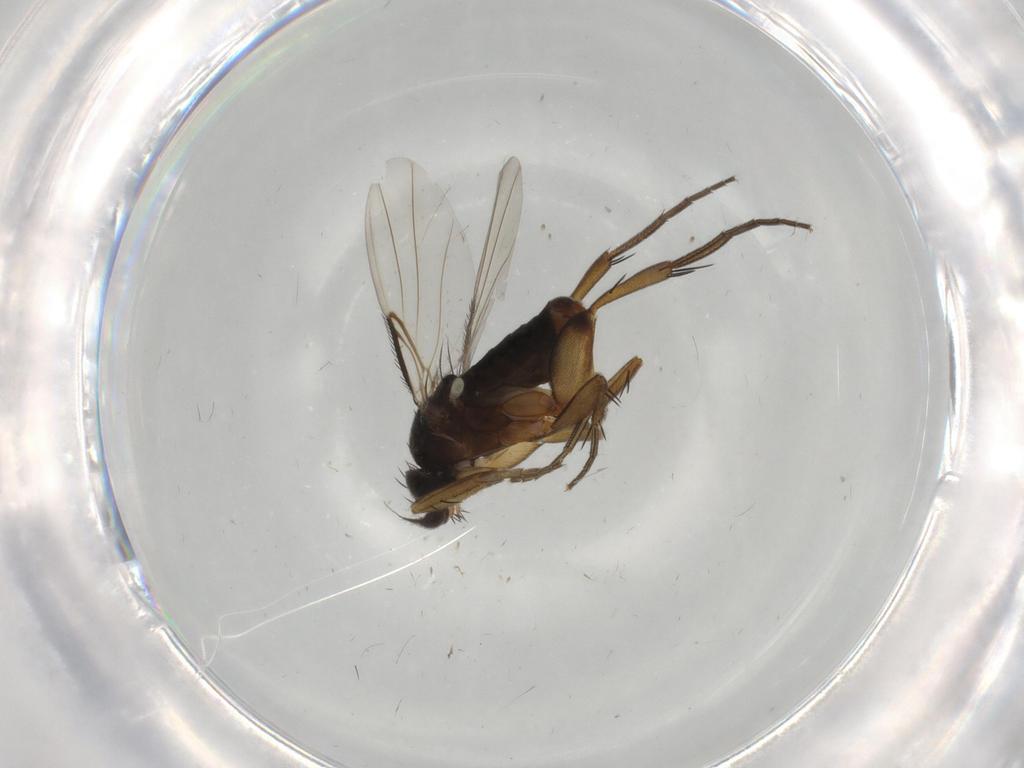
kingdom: Animalia
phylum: Arthropoda
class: Insecta
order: Diptera
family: Phoridae
